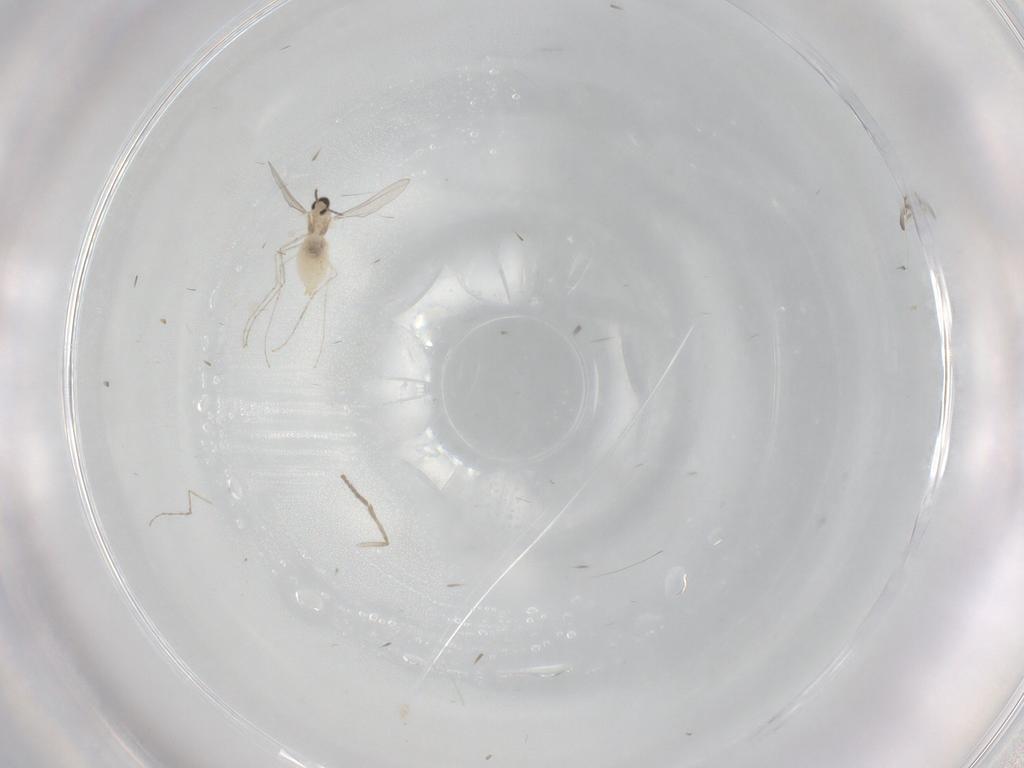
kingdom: Animalia
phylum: Arthropoda
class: Insecta
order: Diptera
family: Cecidomyiidae
